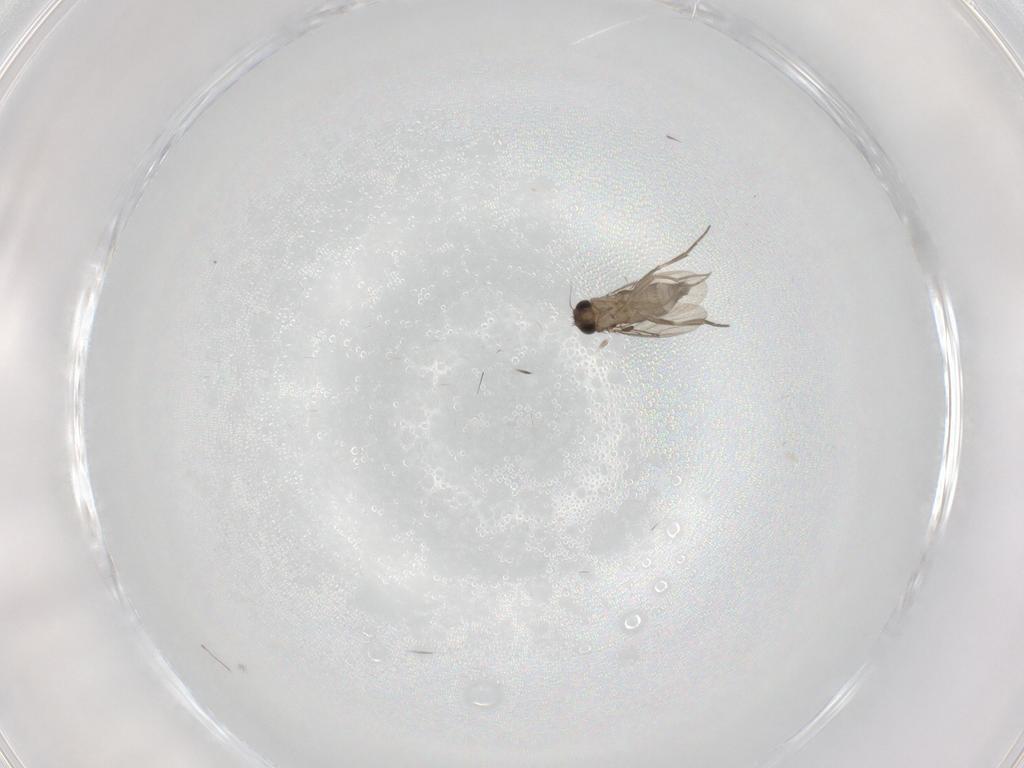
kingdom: Animalia
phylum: Arthropoda
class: Insecta
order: Diptera
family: Phoridae
